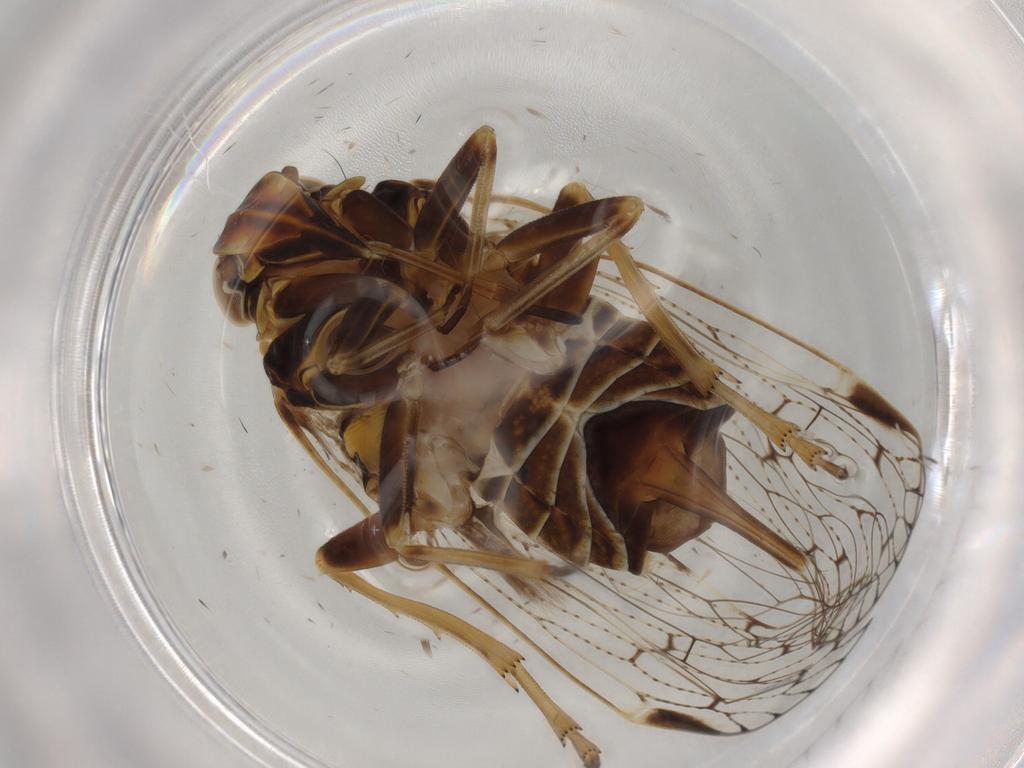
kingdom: Animalia
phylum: Arthropoda
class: Insecta
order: Hemiptera
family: Cixiidae
